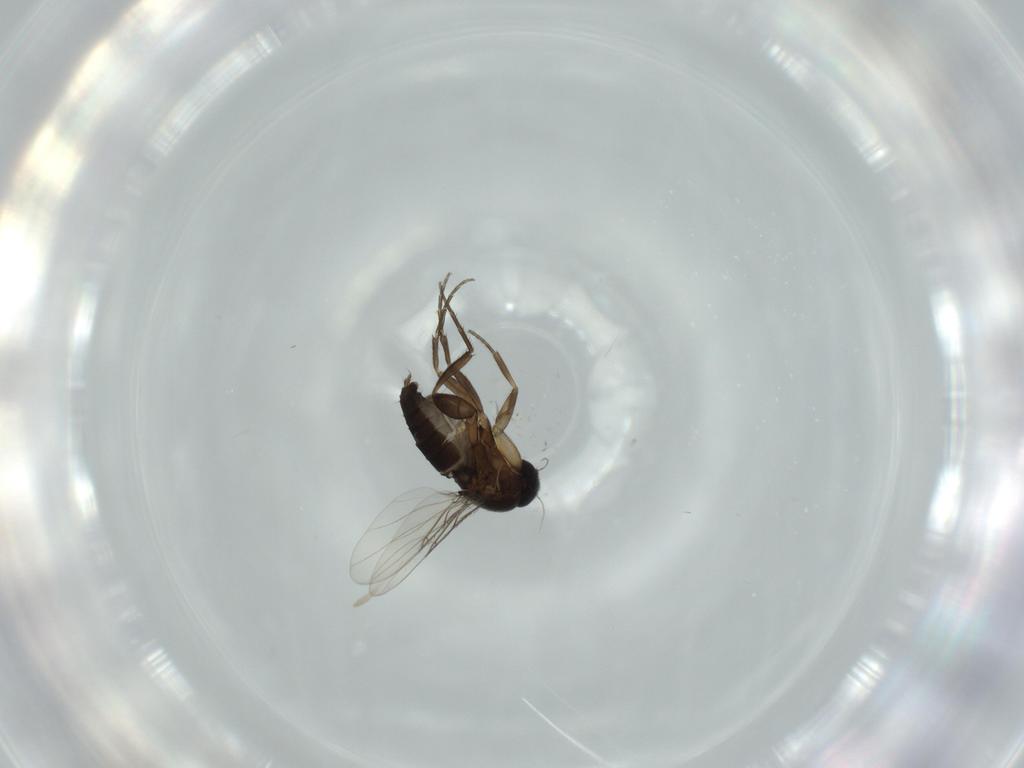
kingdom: Animalia
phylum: Arthropoda
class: Insecta
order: Diptera
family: Phoridae
